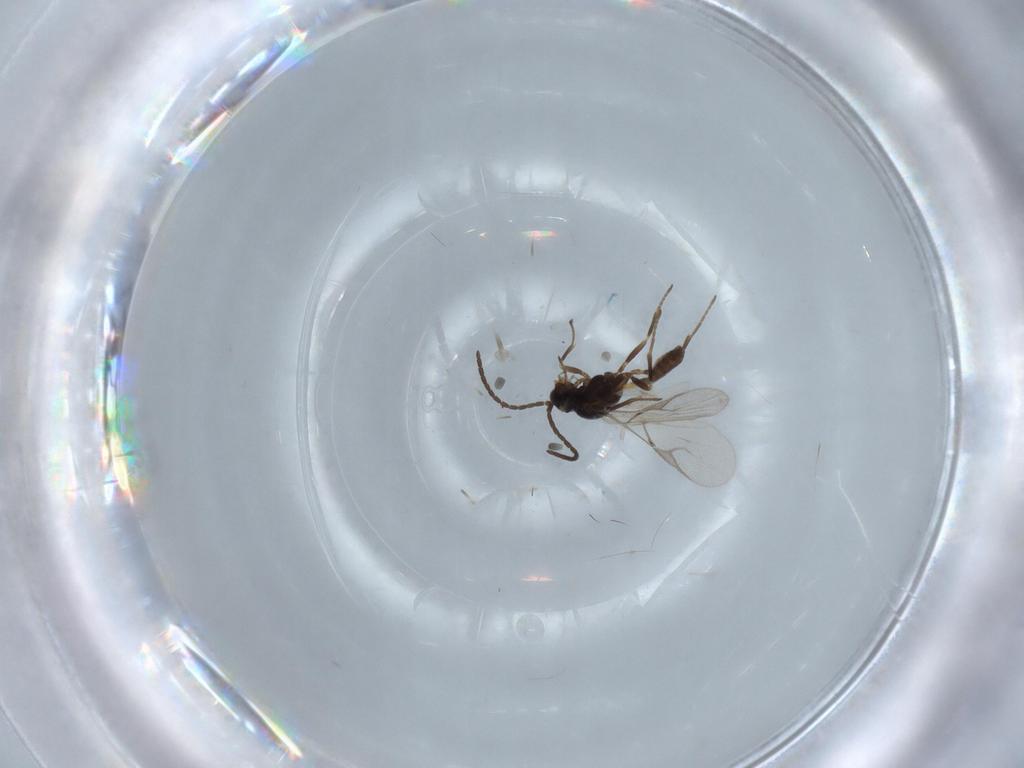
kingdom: Animalia
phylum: Arthropoda
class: Insecta
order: Hymenoptera
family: Braconidae
